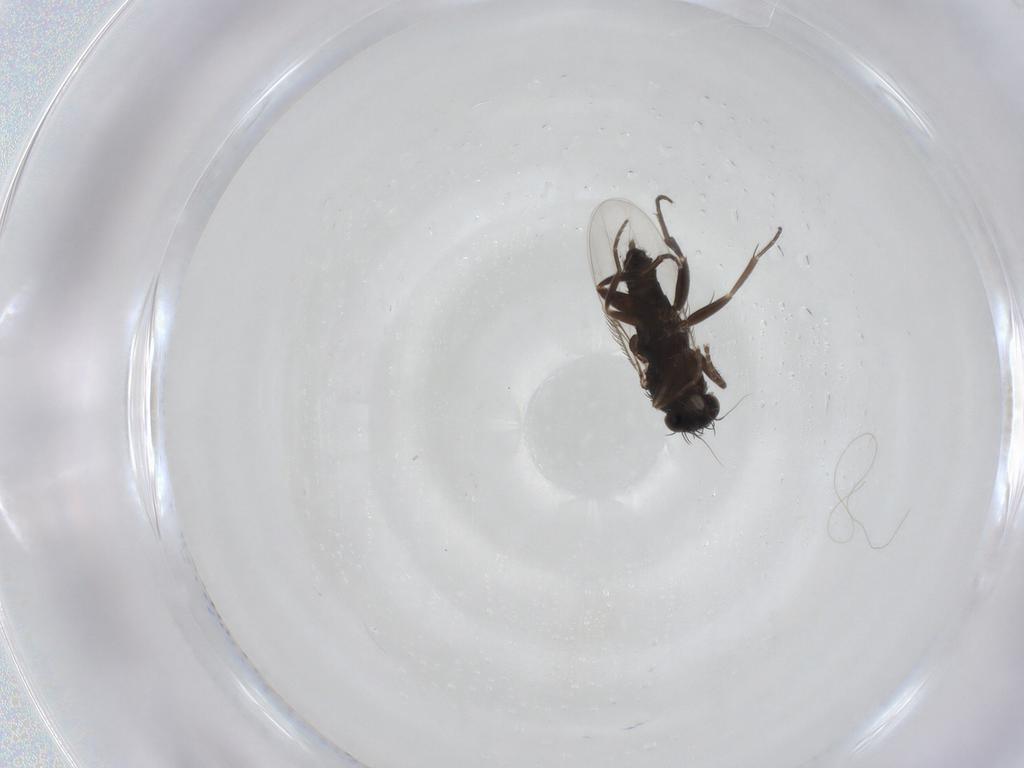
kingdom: Animalia
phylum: Arthropoda
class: Insecta
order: Diptera
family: Phoridae
